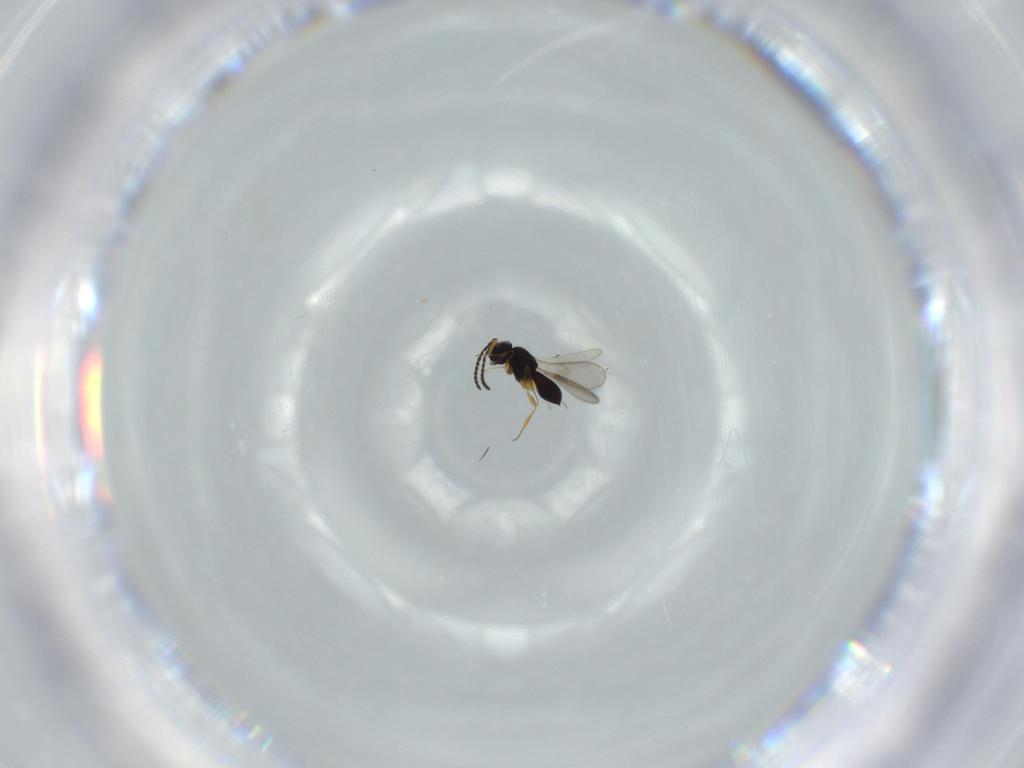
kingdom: Animalia
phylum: Arthropoda
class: Insecta
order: Hymenoptera
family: Scelionidae
